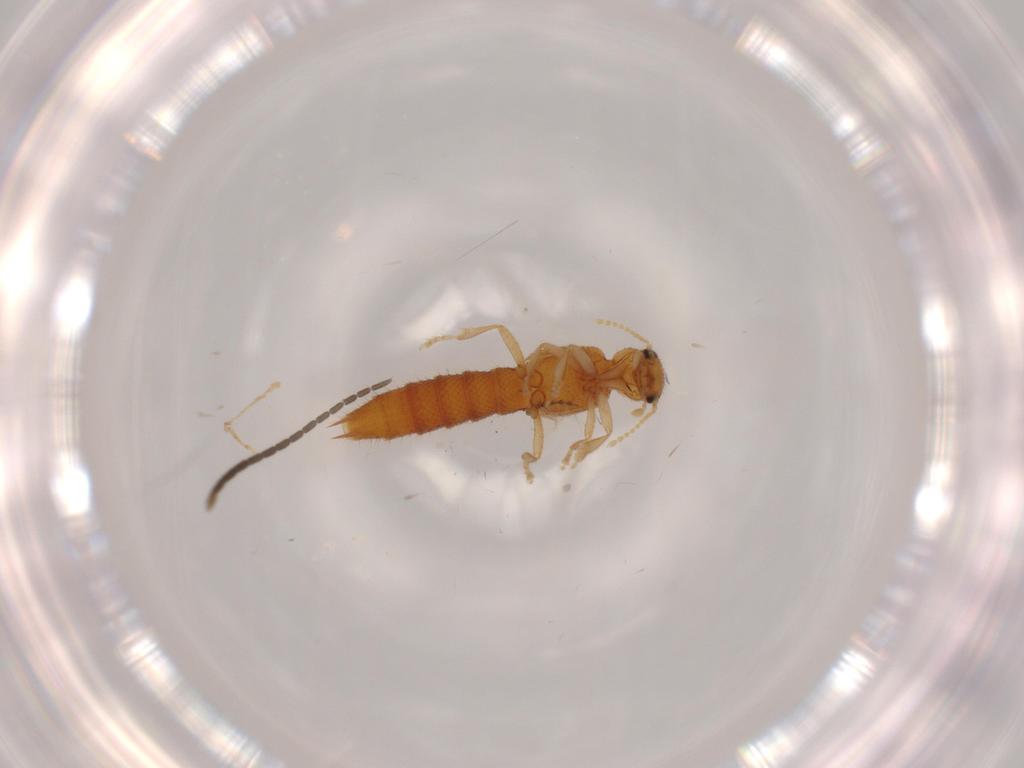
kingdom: Animalia
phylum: Arthropoda
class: Insecta
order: Coleoptera
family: Staphylinidae
